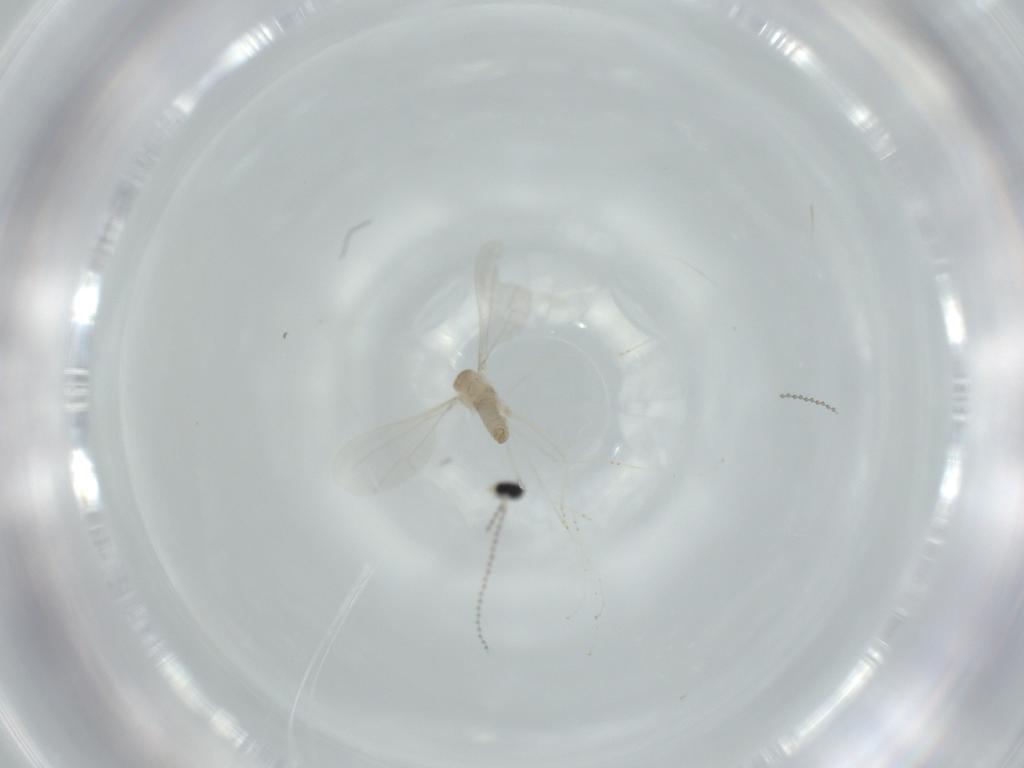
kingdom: Animalia
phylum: Arthropoda
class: Insecta
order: Diptera
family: Cecidomyiidae
